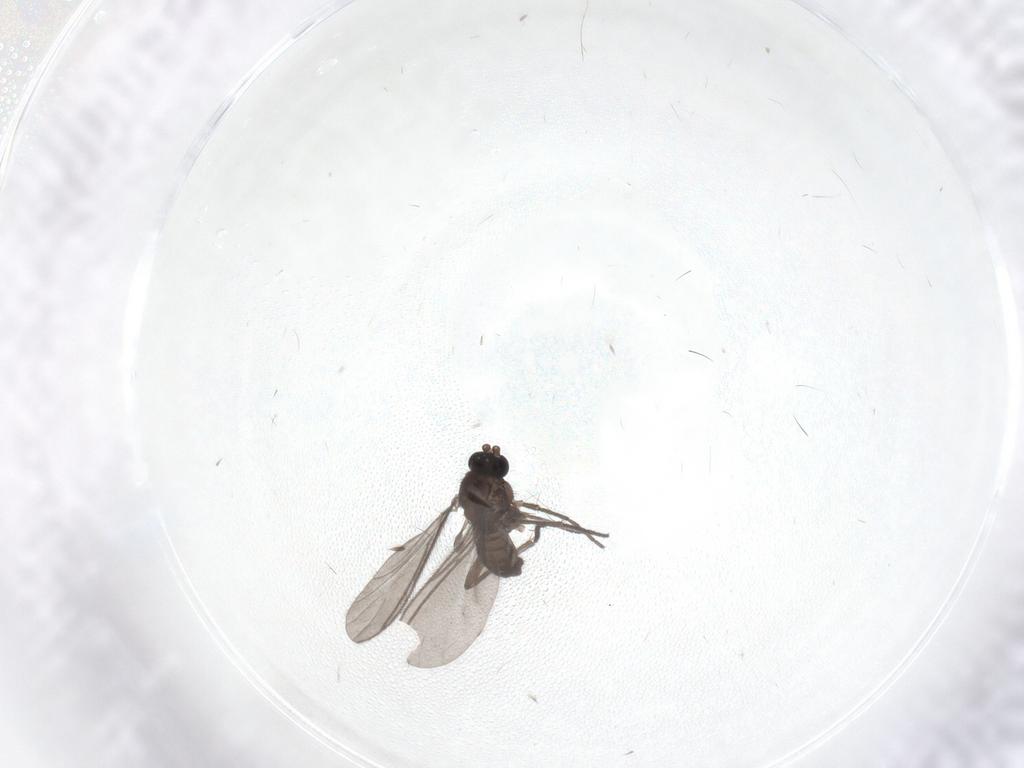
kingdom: Animalia
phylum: Arthropoda
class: Insecta
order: Diptera
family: Sciaridae
